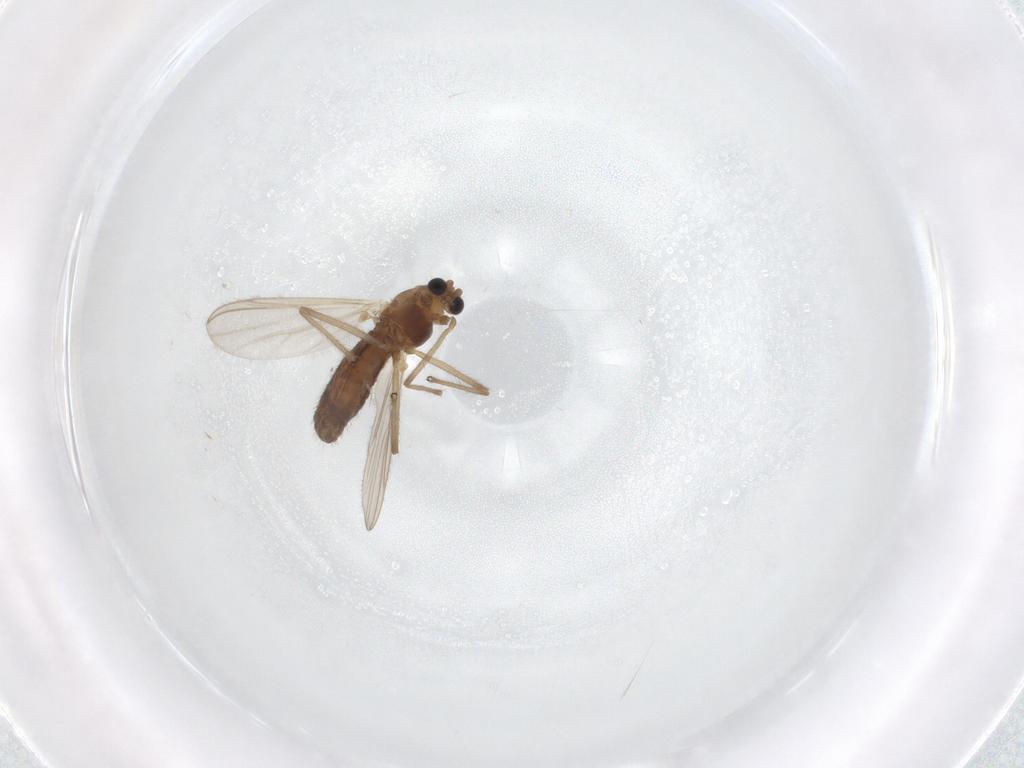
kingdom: Animalia
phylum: Arthropoda
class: Insecta
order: Diptera
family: Chironomidae
